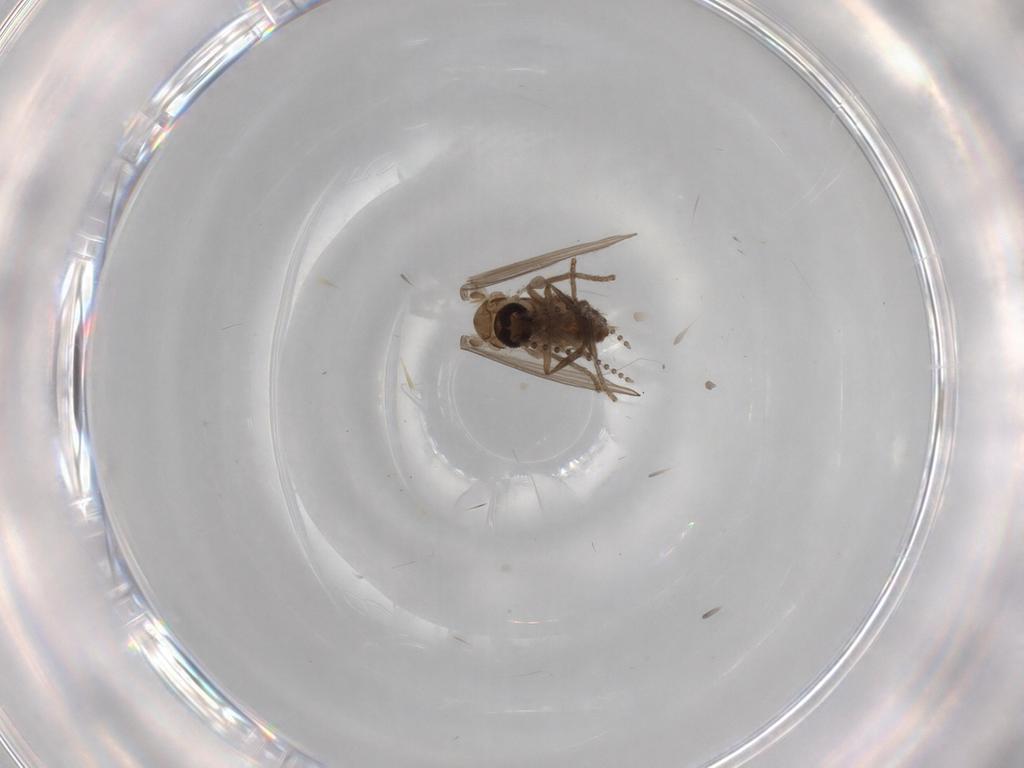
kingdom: Animalia
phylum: Arthropoda
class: Insecta
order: Diptera
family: Psychodidae
